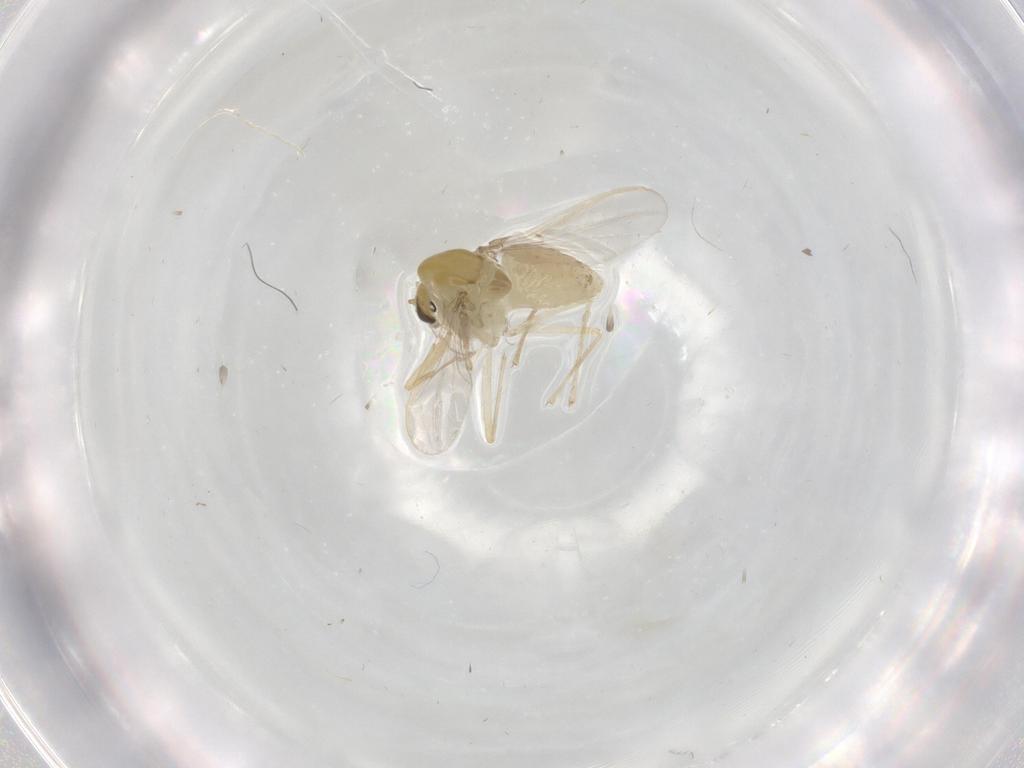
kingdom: Animalia
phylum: Arthropoda
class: Insecta
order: Diptera
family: Chironomidae
